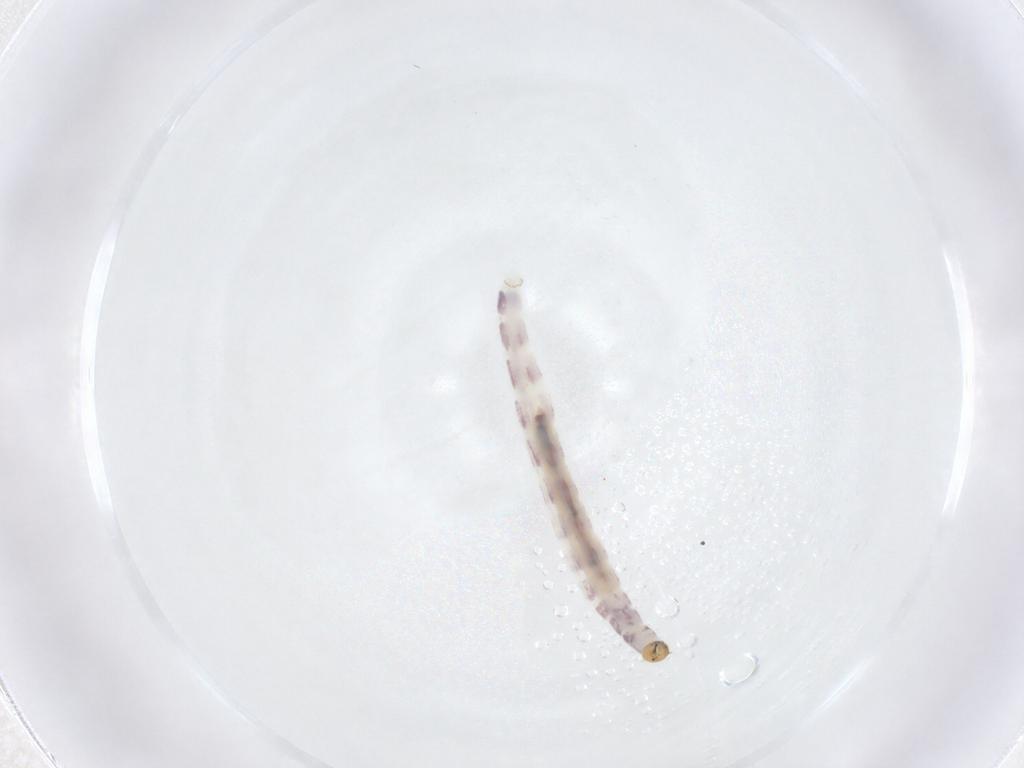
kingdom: Animalia
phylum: Arthropoda
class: Insecta
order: Diptera
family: Chironomidae
